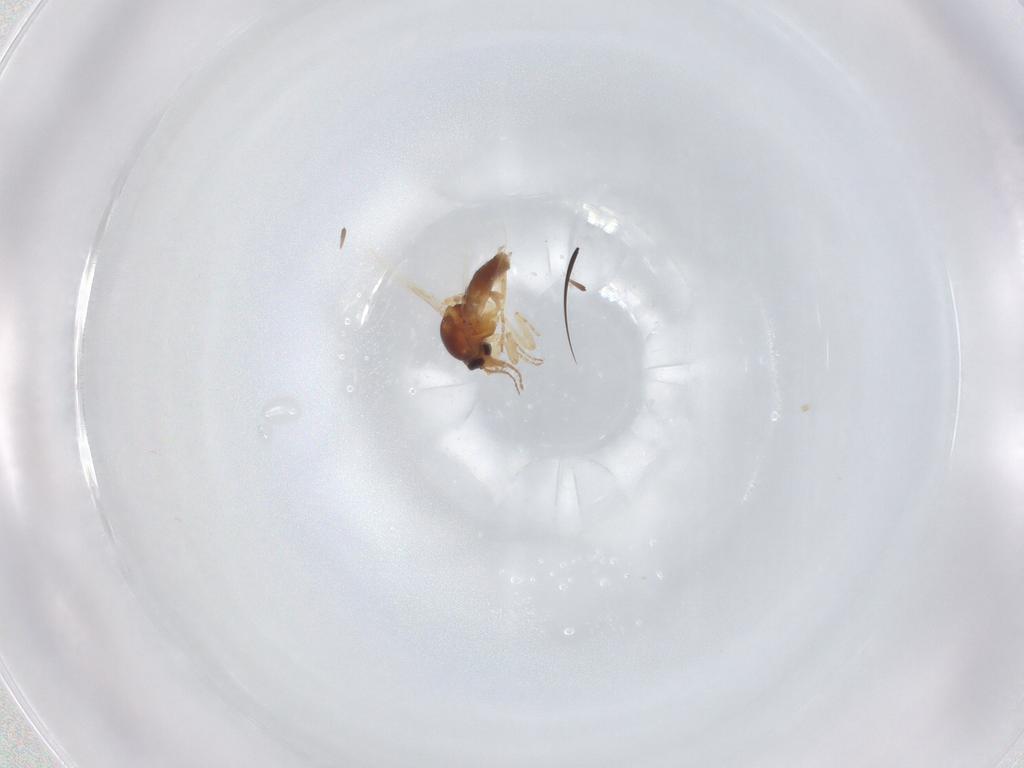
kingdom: Animalia
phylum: Arthropoda
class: Insecta
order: Diptera
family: Ceratopogonidae
